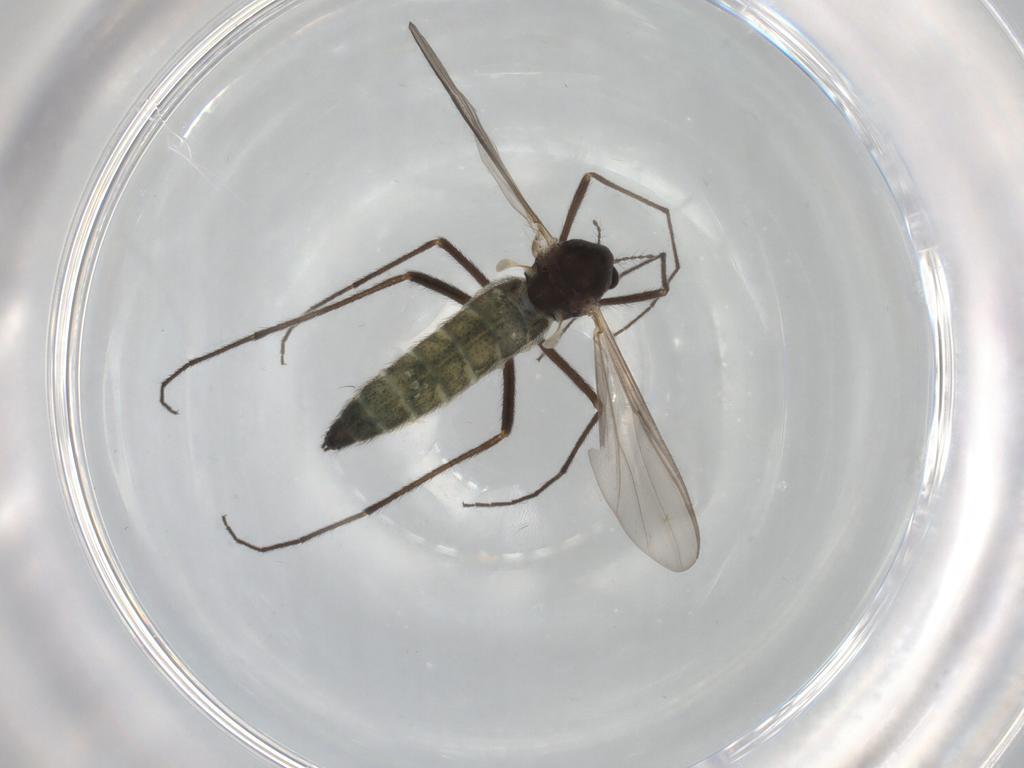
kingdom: Animalia
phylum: Arthropoda
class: Insecta
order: Diptera
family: Chironomidae
